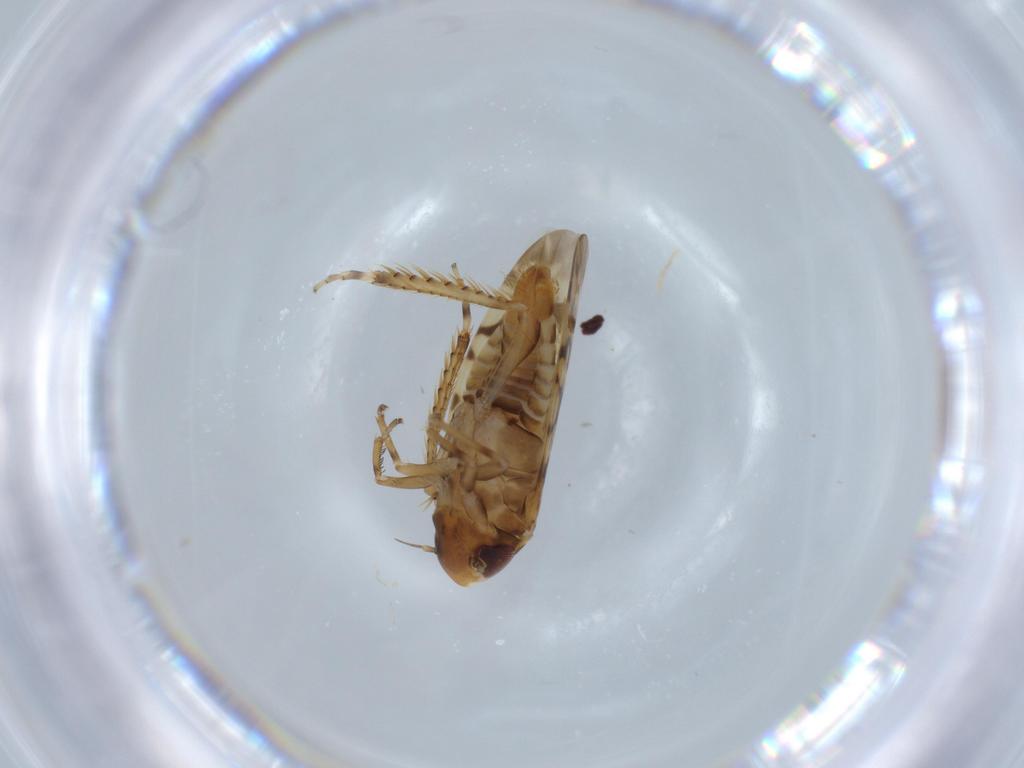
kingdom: Animalia
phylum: Arthropoda
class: Insecta
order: Hemiptera
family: Cicadellidae
